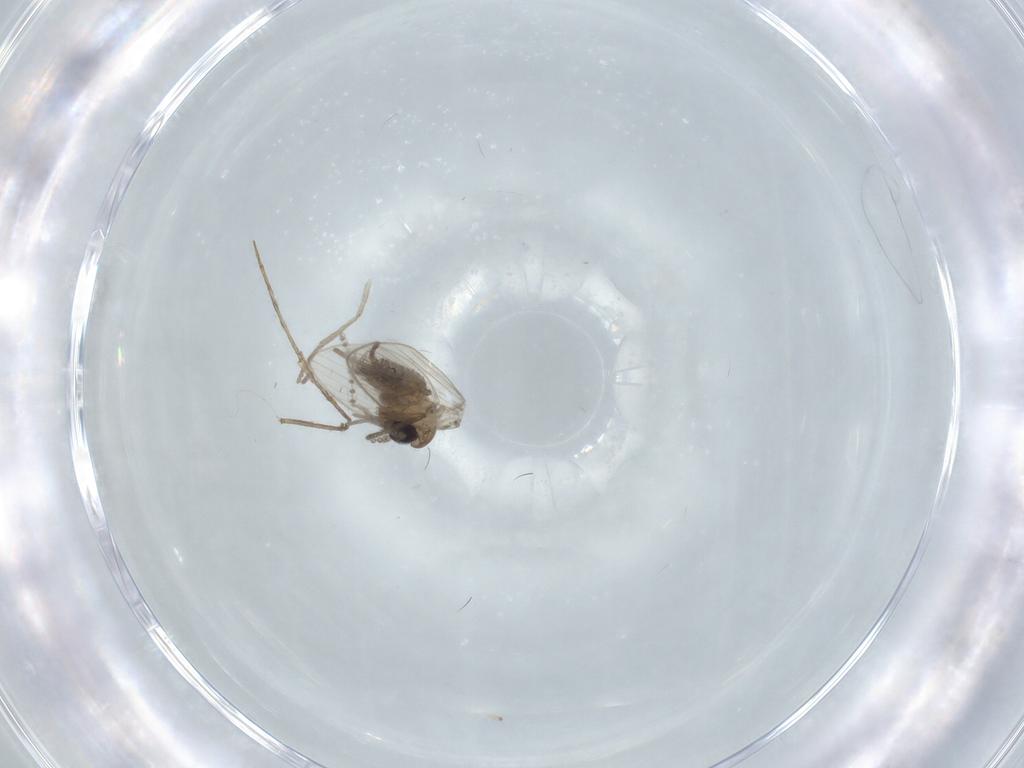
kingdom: Animalia
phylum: Arthropoda
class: Insecta
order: Diptera
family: Psychodidae
